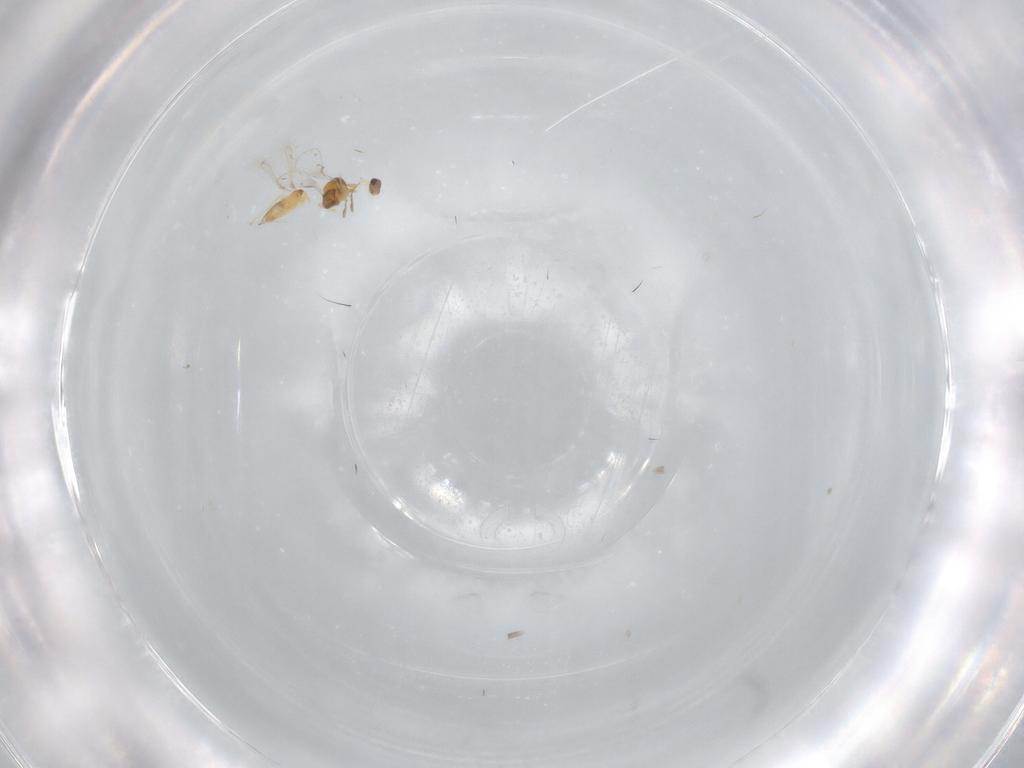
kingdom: Animalia
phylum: Arthropoda
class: Insecta
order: Hymenoptera
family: Mymaridae
